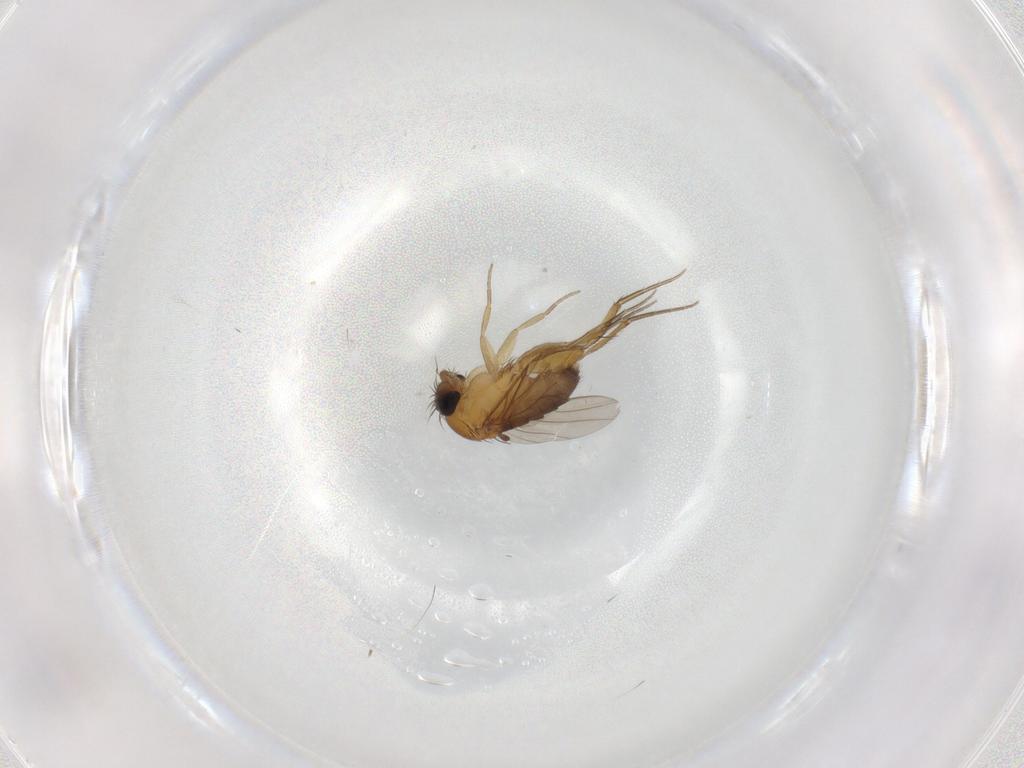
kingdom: Animalia
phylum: Arthropoda
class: Insecta
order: Diptera
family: Phoridae
